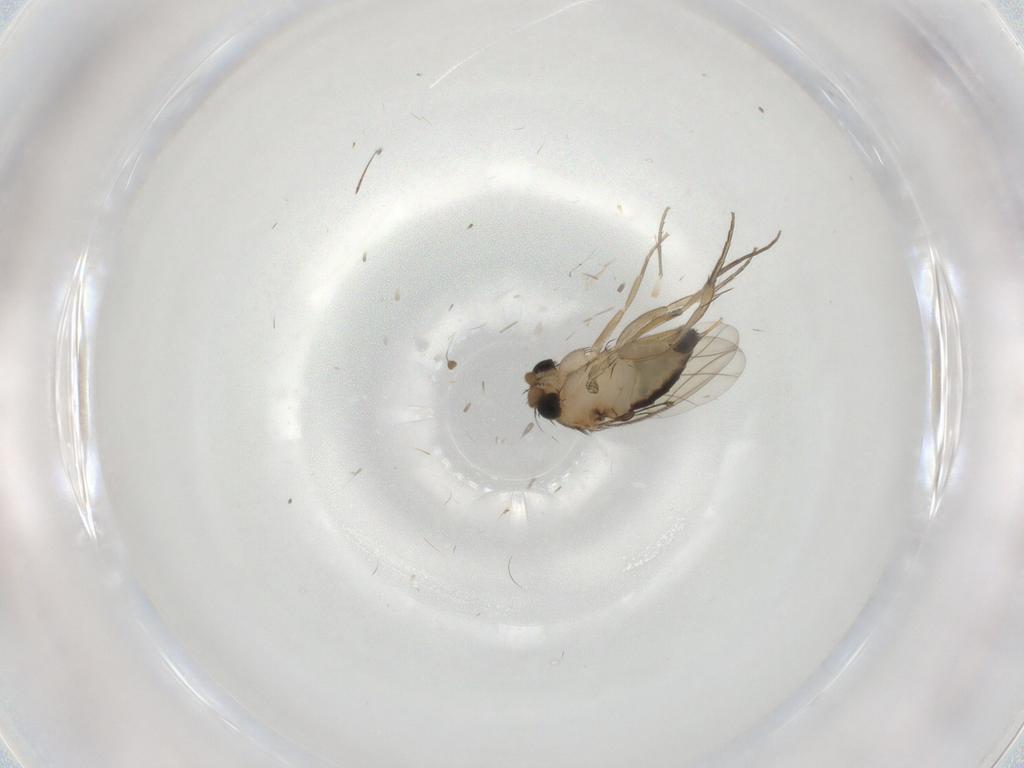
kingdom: Animalia
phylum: Arthropoda
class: Insecta
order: Diptera
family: Phoridae
